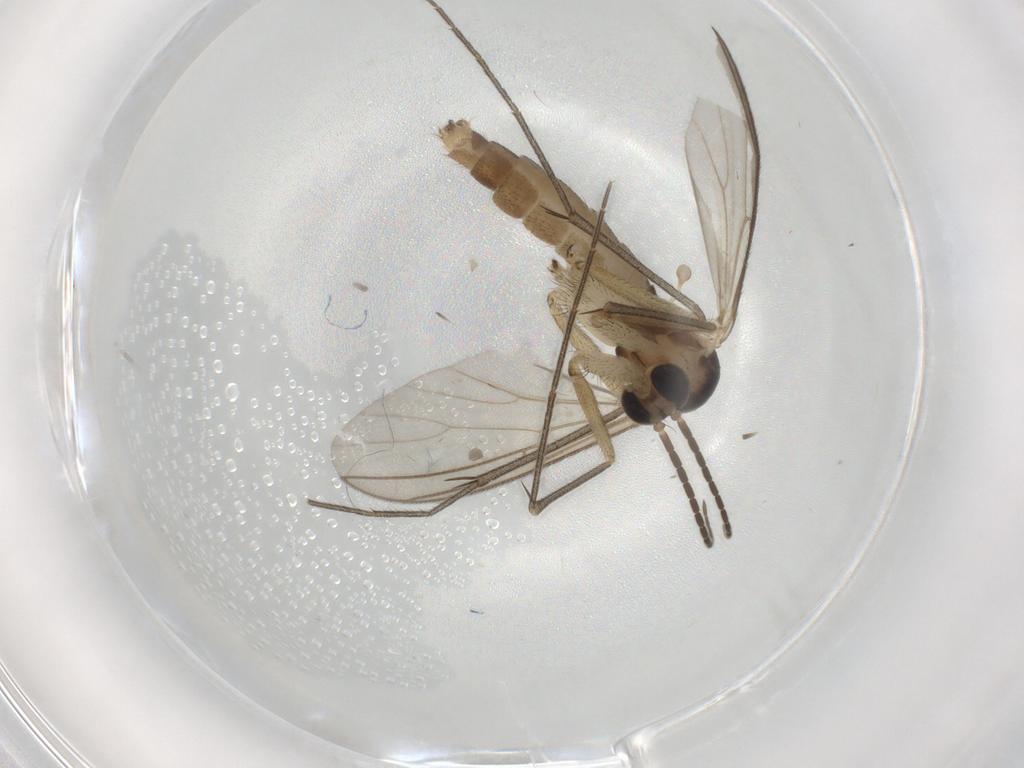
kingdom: Animalia
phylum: Arthropoda
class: Insecta
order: Diptera
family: Mycetophilidae
